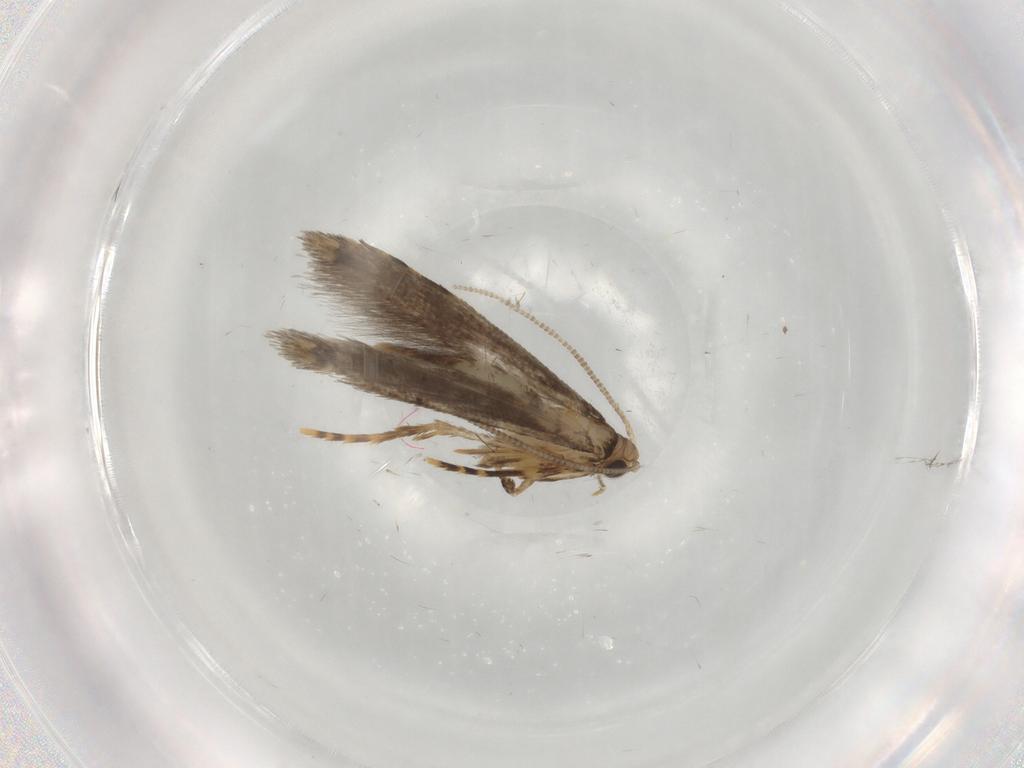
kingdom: Animalia
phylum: Arthropoda
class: Insecta
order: Lepidoptera
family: Tineidae
